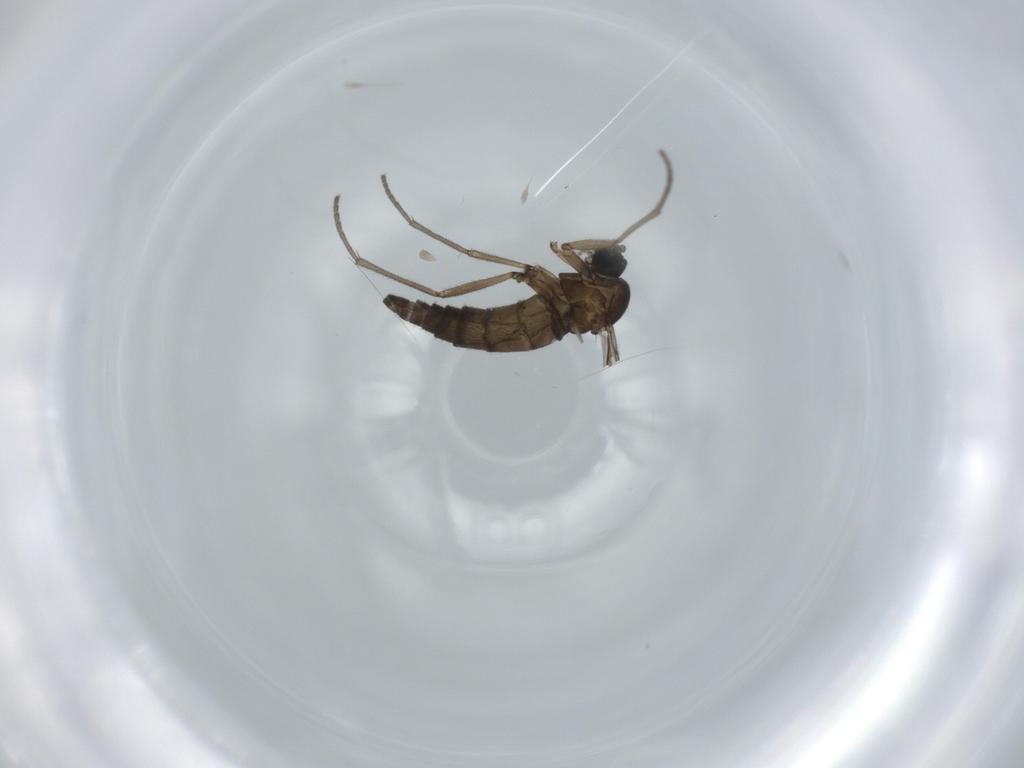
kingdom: Animalia
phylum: Arthropoda
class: Insecta
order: Diptera
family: Sciaridae
